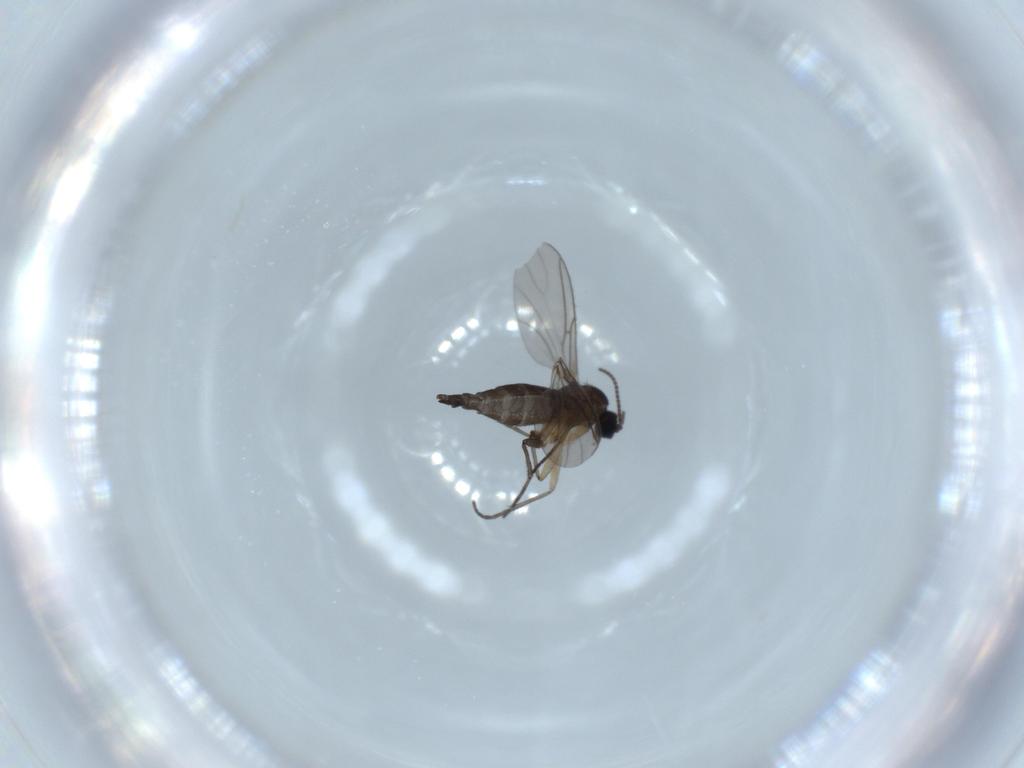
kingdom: Animalia
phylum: Arthropoda
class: Insecta
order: Diptera
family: Sciaridae
